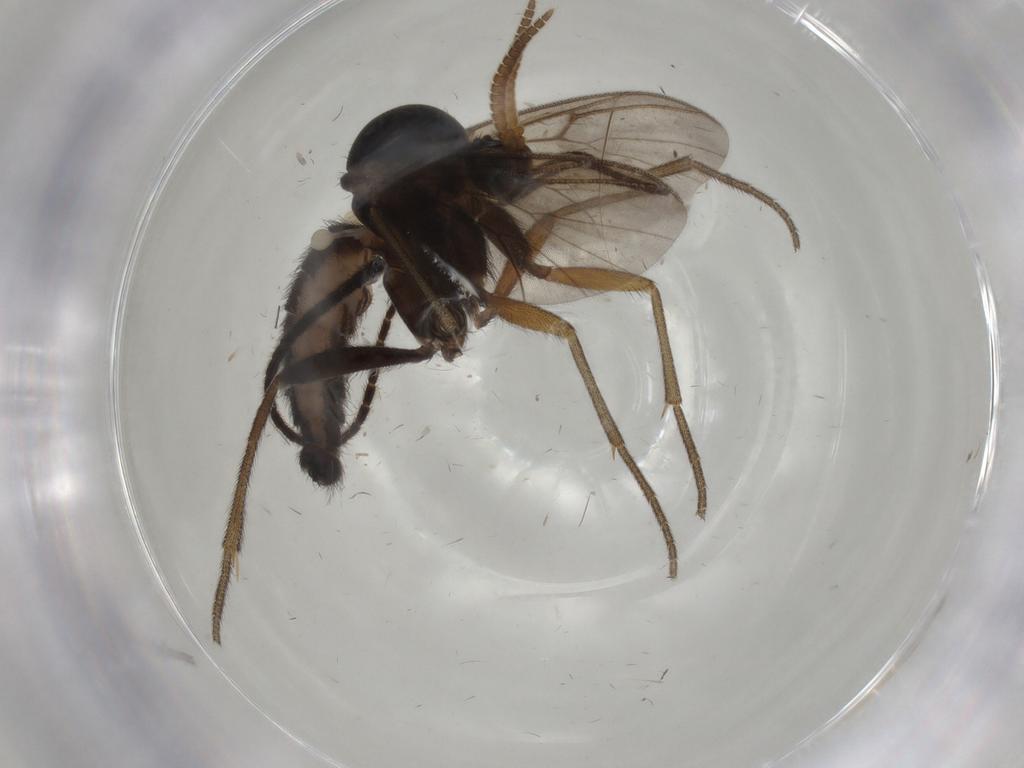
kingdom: Animalia
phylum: Arthropoda
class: Insecta
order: Diptera
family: Mycetophilidae
